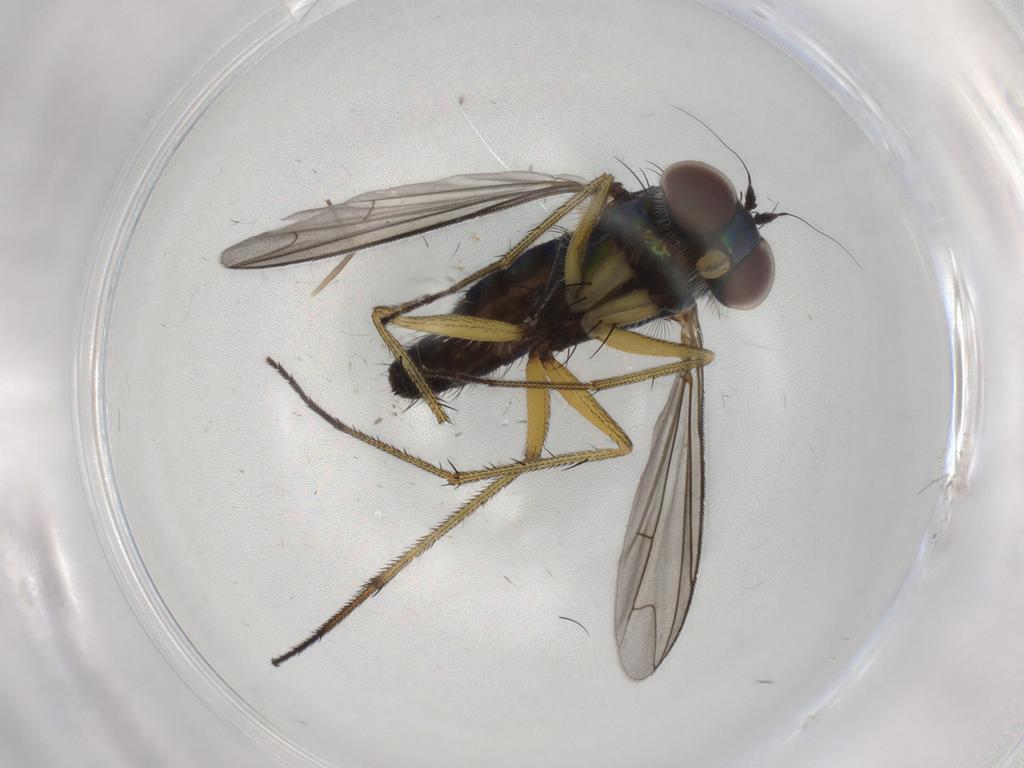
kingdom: Animalia
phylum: Arthropoda
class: Insecta
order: Diptera
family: Dolichopodidae
